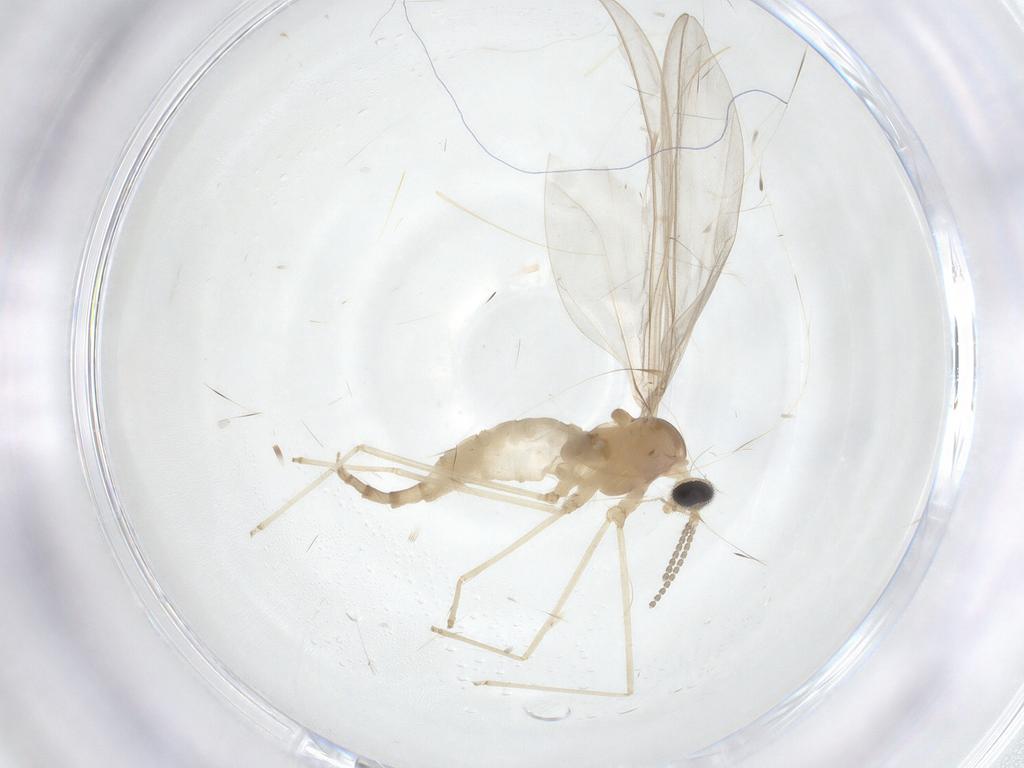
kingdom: Animalia
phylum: Arthropoda
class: Insecta
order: Diptera
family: Cecidomyiidae
